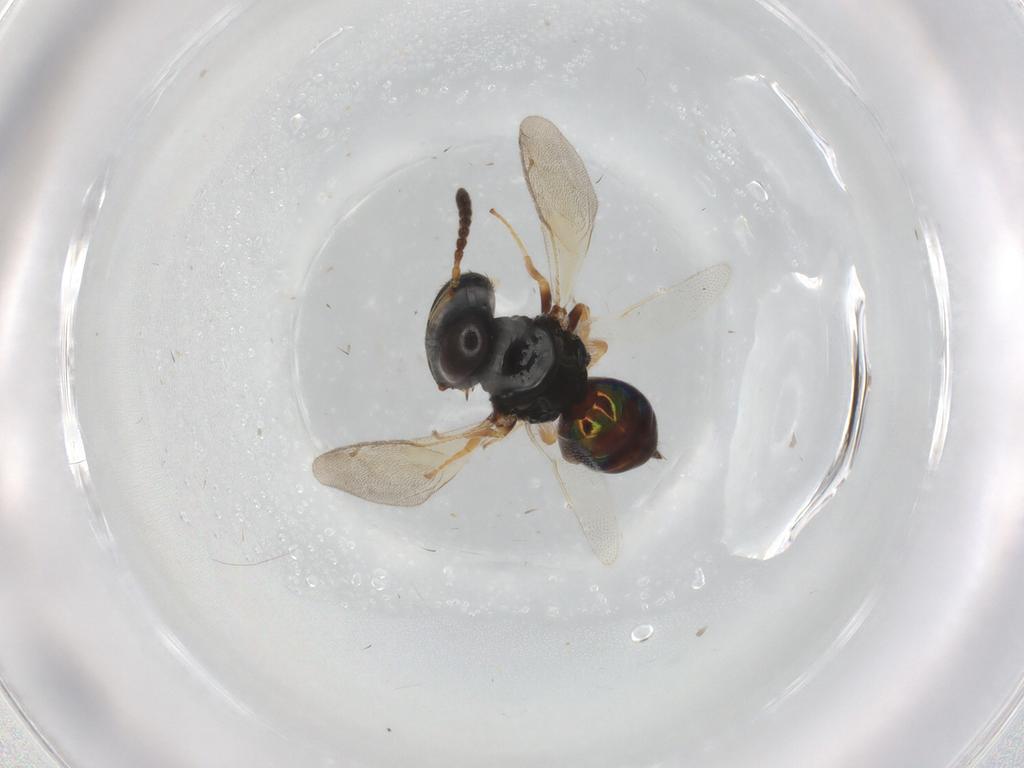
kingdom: Animalia
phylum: Arthropoda
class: Insecta
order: Hymenoptera
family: Pteromalidae
